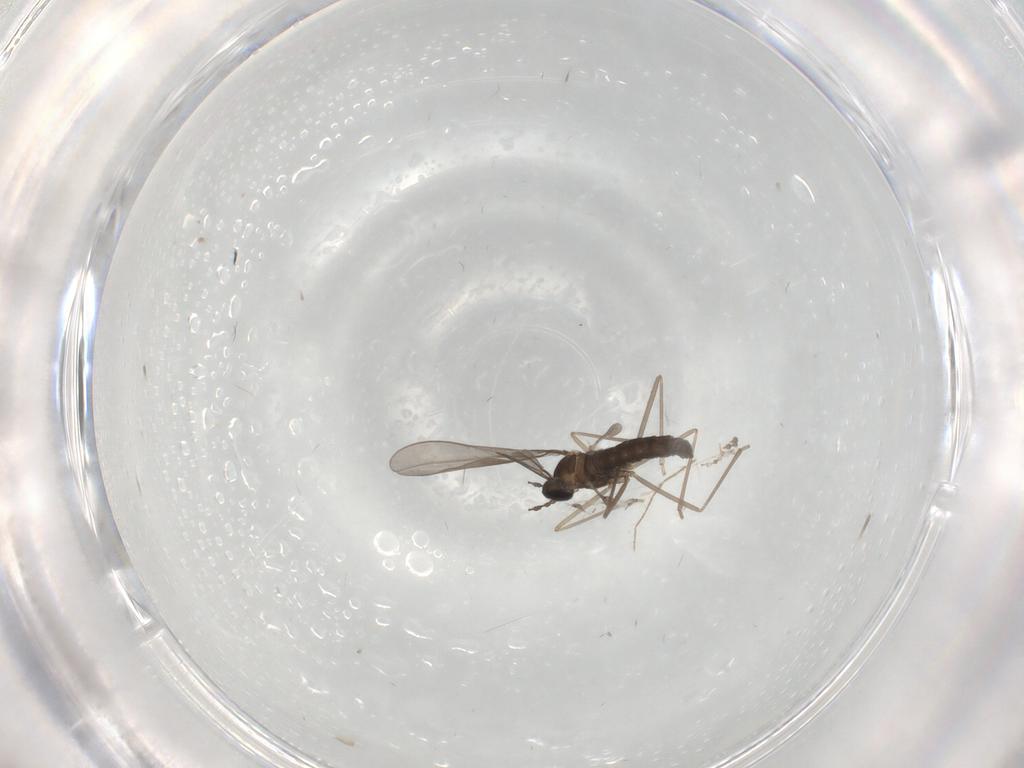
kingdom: Animalia
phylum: Arthropoda
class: Insecta
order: Diptera
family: Cecidomyiidae
